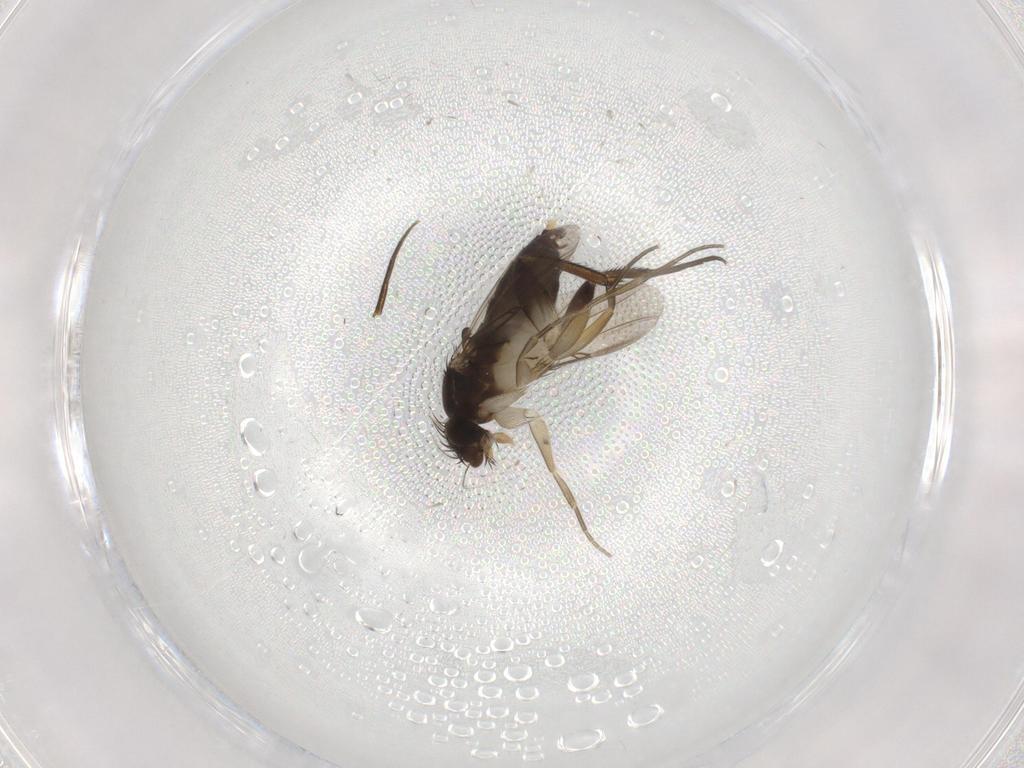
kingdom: Animalia
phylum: Arthropoda
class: Insecta
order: Diptera
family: Phoridae
